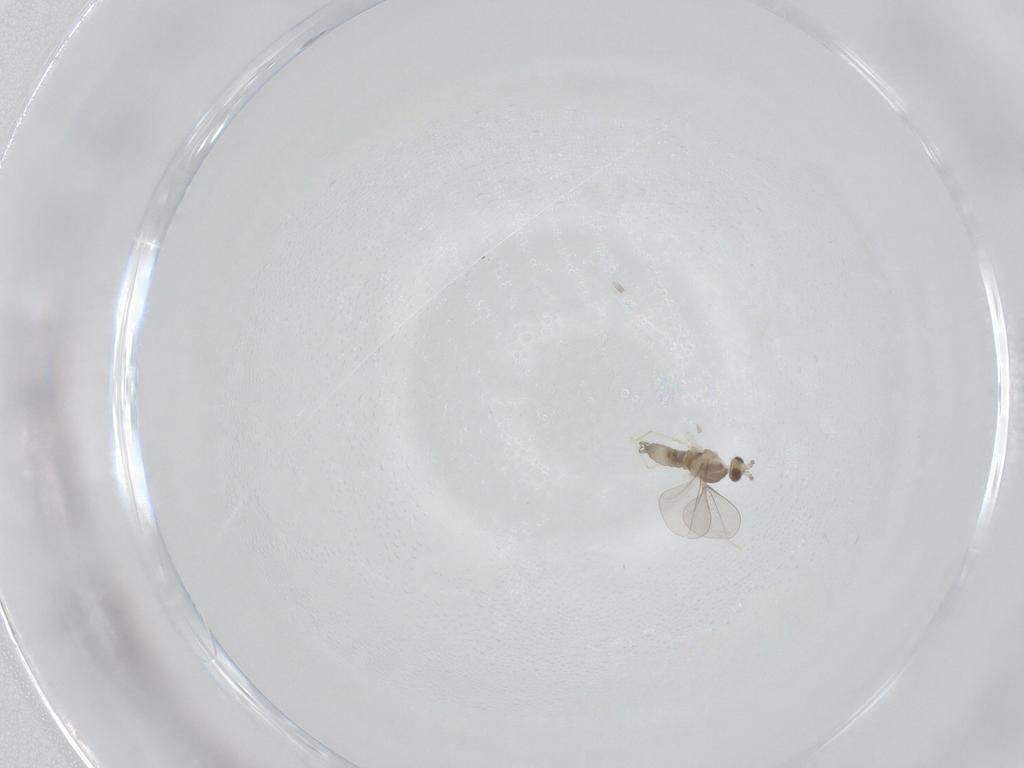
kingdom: Animalia
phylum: Arthropoda
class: Insecta
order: Diptera
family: Cecidomyiidae
